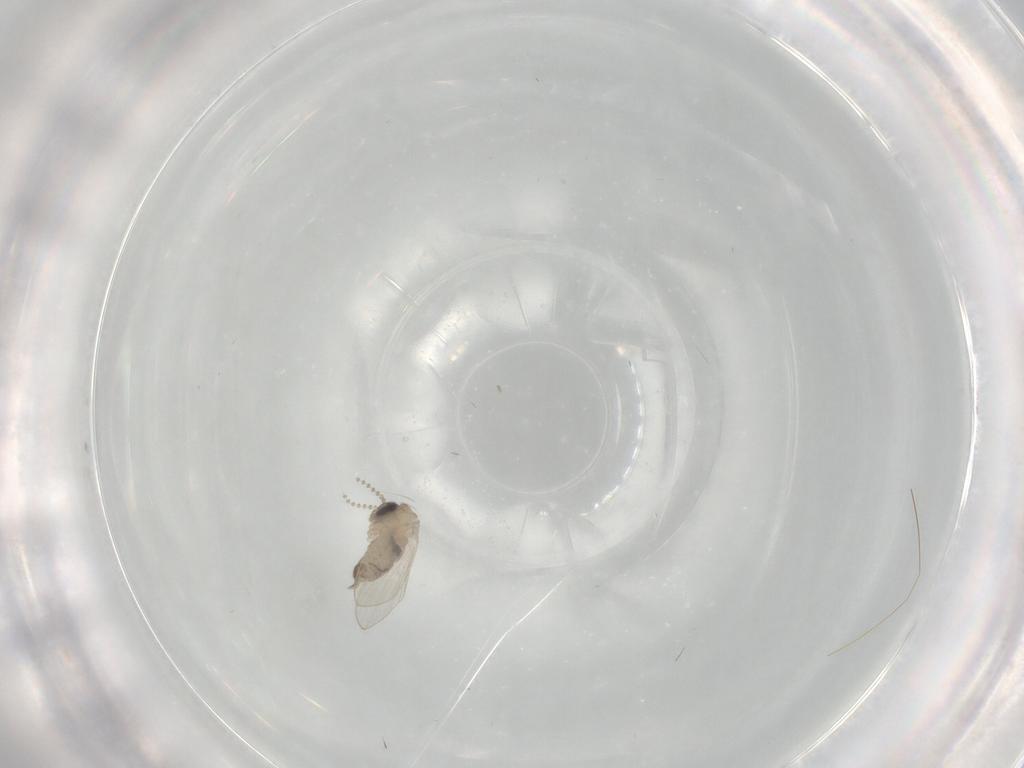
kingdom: Animalia
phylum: Arthropoda
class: Insecta
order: Diptera
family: Psychodidae
